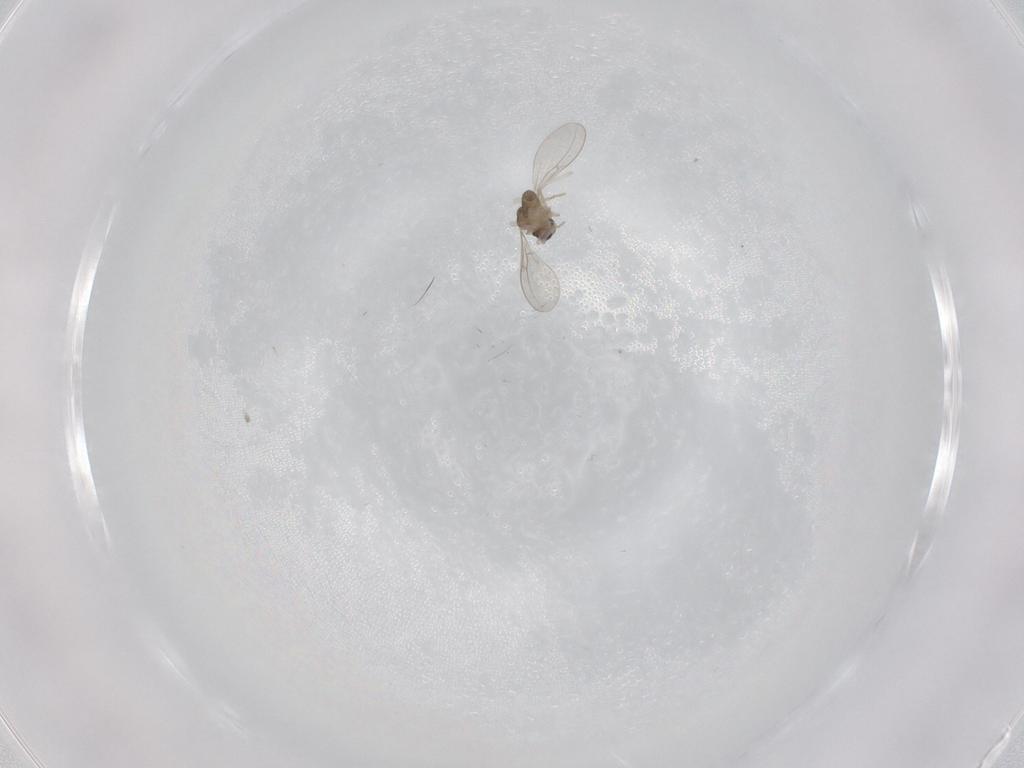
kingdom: Animalia
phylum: Arthropoda
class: Insecta
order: Diptera
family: Cecidomyiidae
